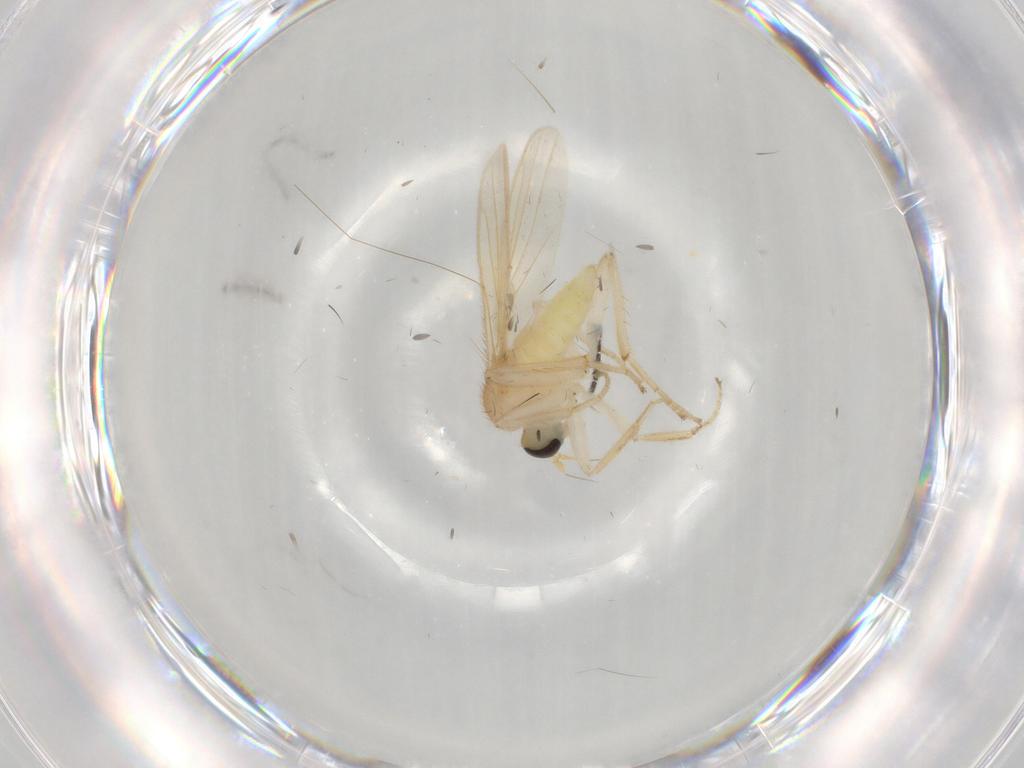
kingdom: Animalia
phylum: Arthropoda
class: Insecta
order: Diptera
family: Hybotidae
